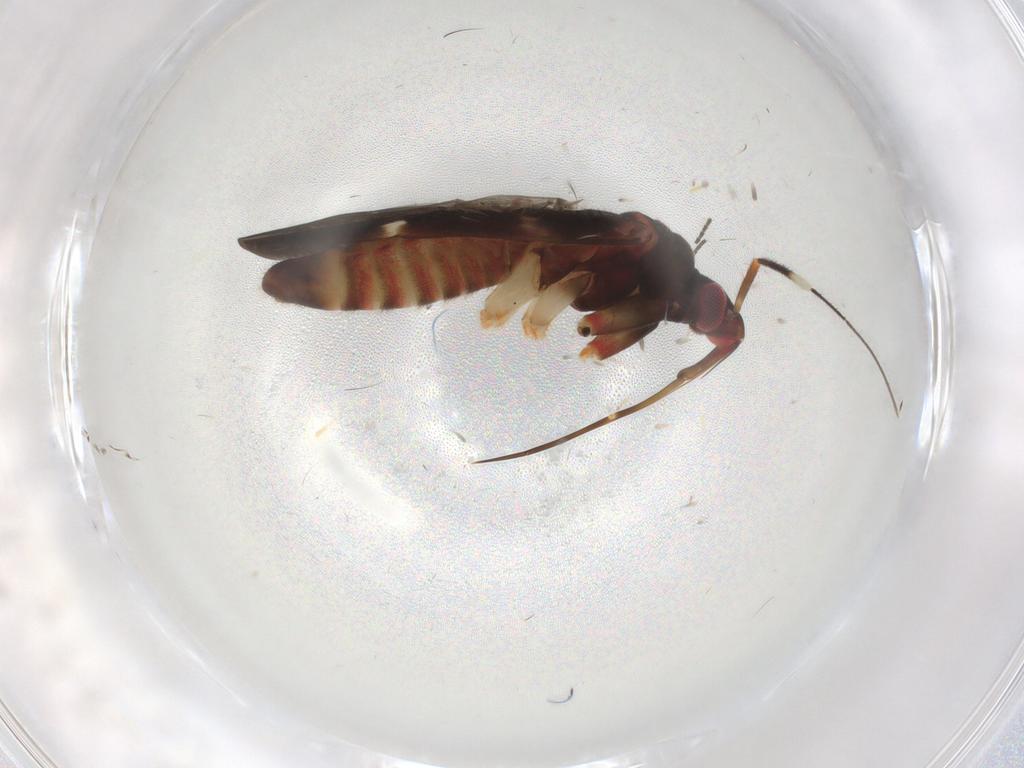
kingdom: Animalia
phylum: Arthropoda
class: Insecta
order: Hemiptera
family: Miridae
